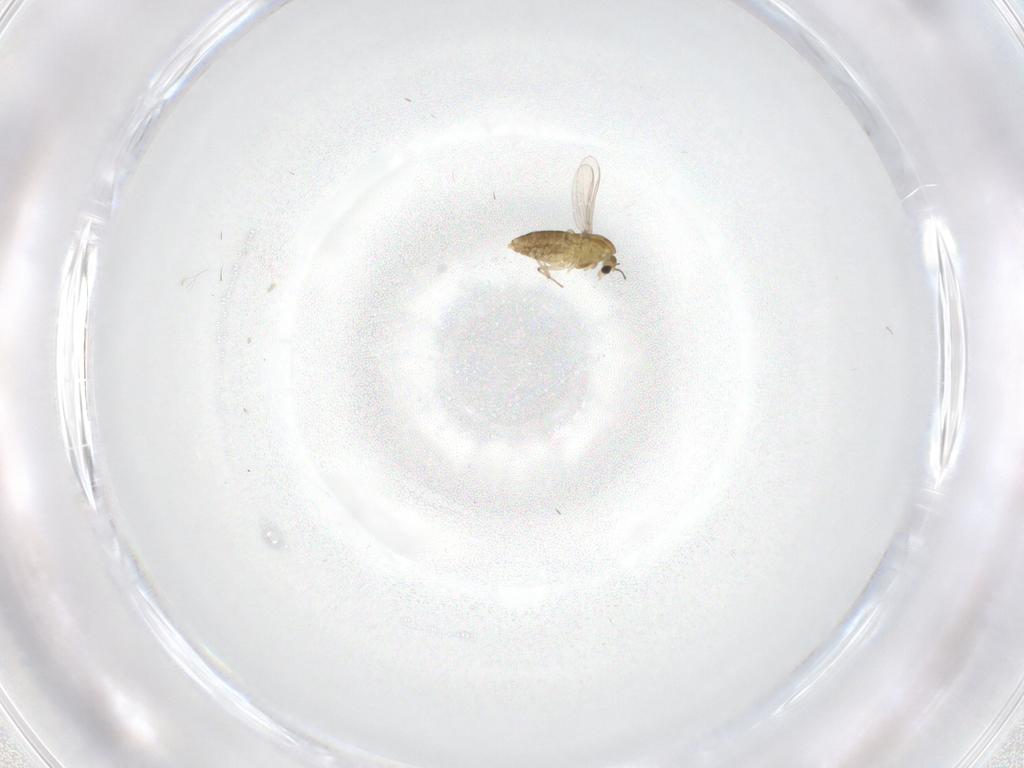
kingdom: Animalia
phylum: Arthropoda
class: Insecta
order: Diptera
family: Chironomidae
